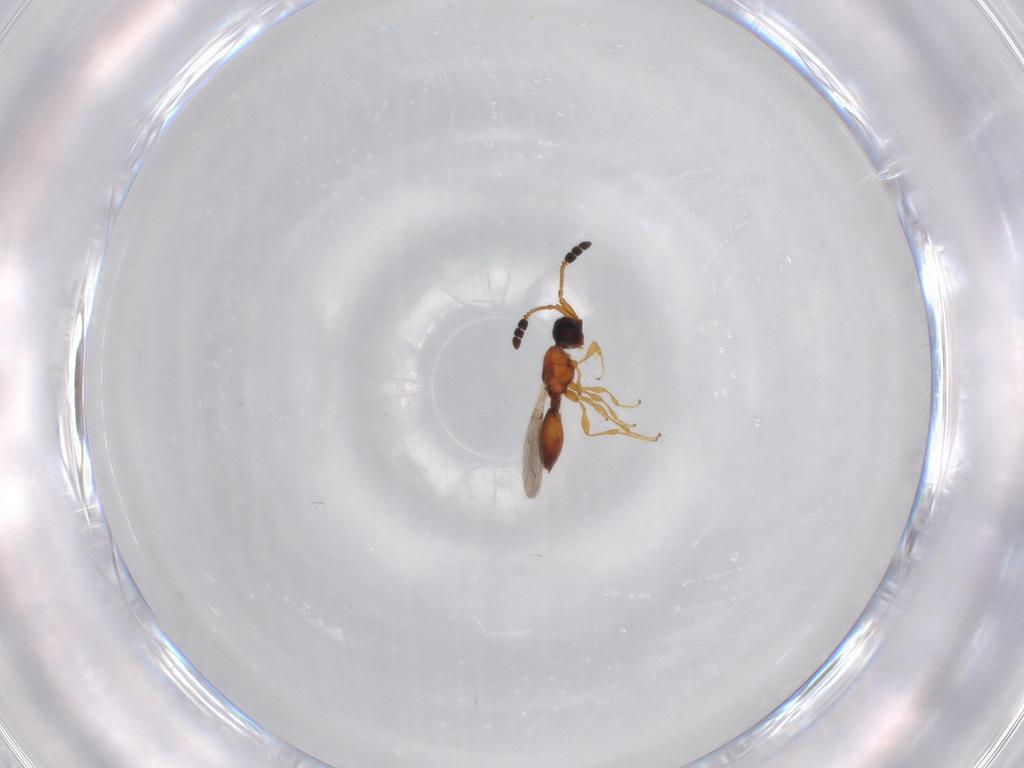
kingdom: Animalia
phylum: Arthropoda
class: Insecta
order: Hymenoptera
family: Diapriidae
